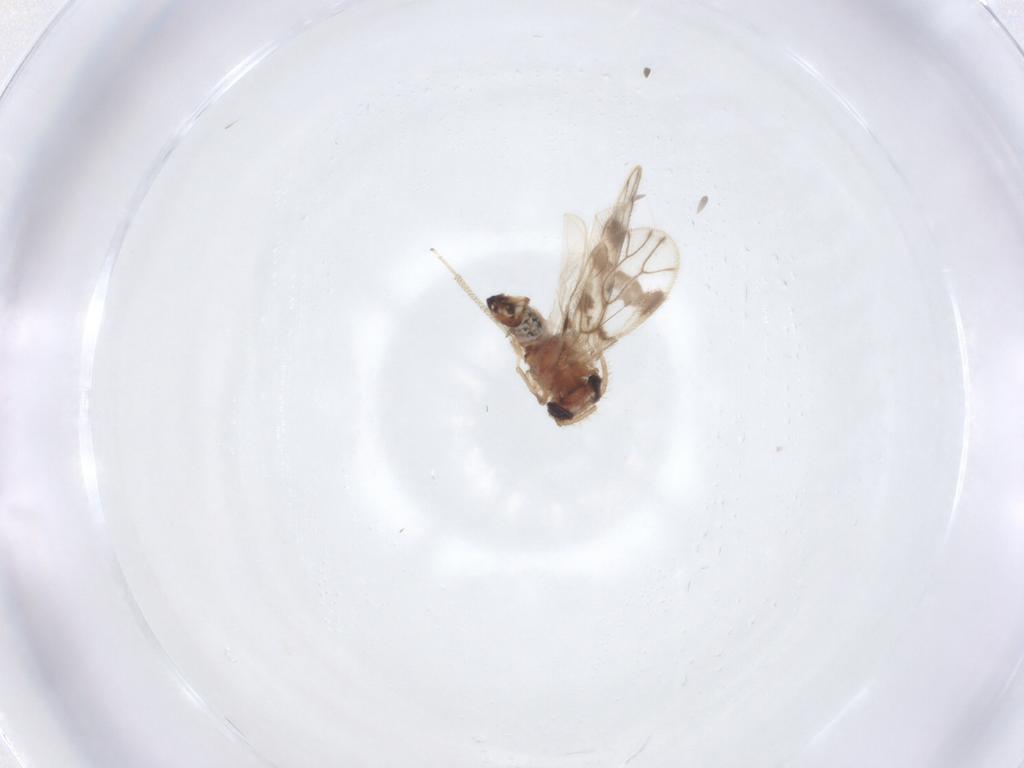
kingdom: Animalia
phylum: Arthropoda
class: Insecta
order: Psocodea
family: Pseudocaeciliidae
